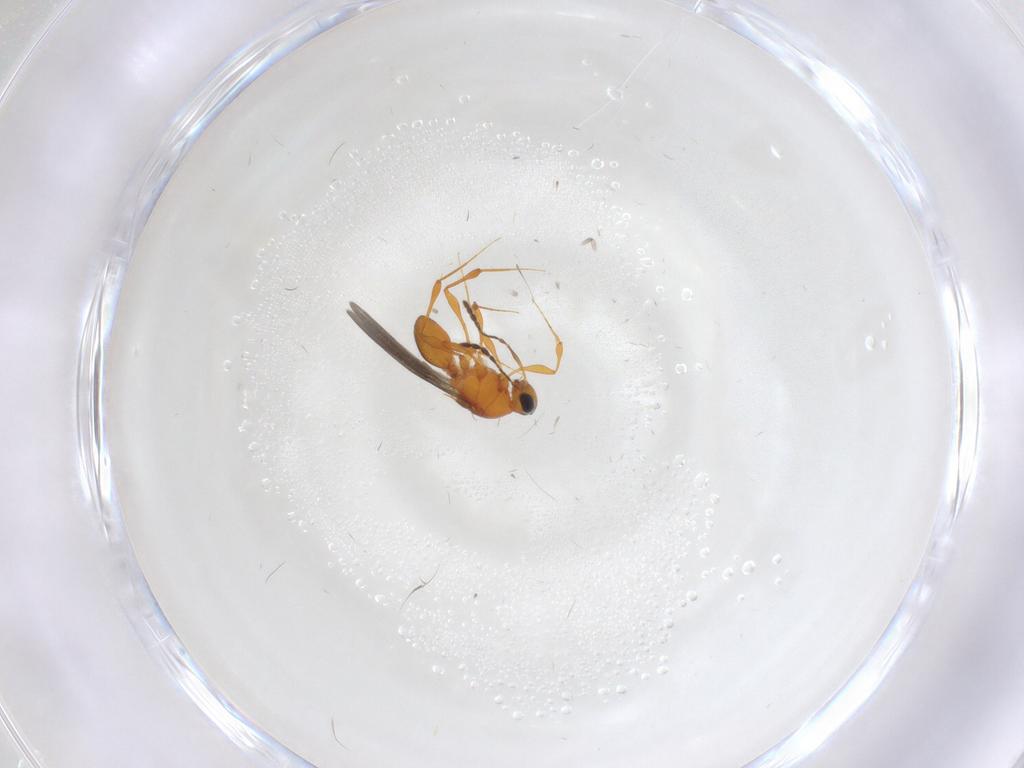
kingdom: Animalia
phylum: Arthropoda
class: Insecta
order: Hymenoptera
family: Platygastridae
